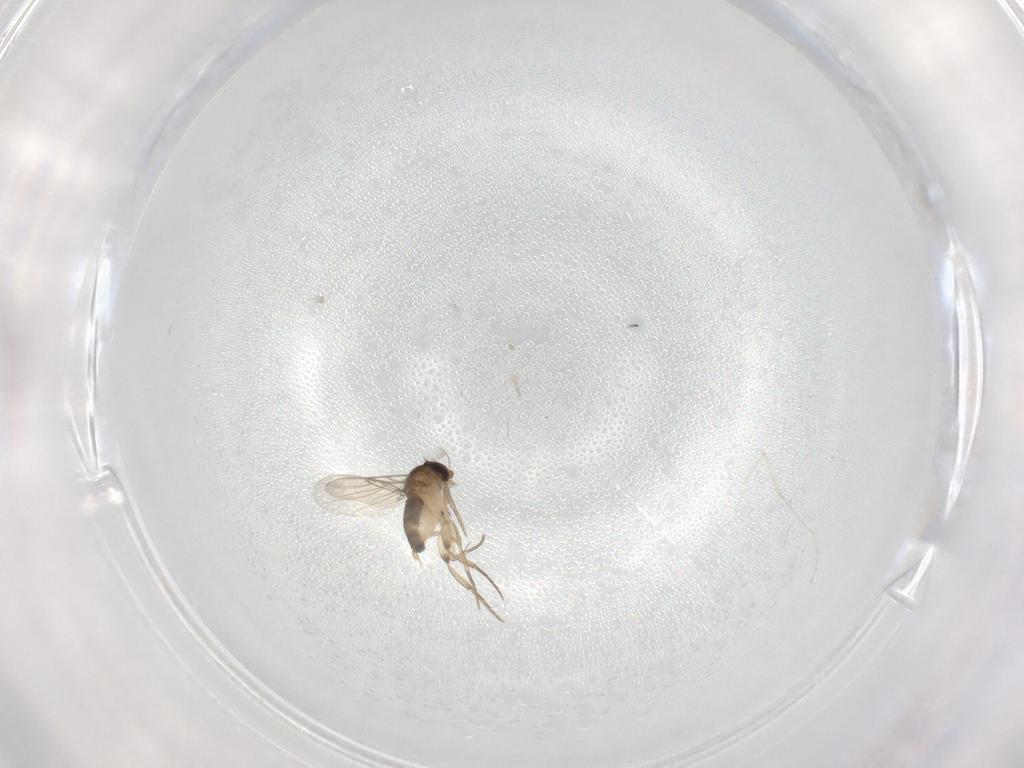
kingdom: Animalia
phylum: Arthropoda
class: Insecta
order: Diptera
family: Phoridae
